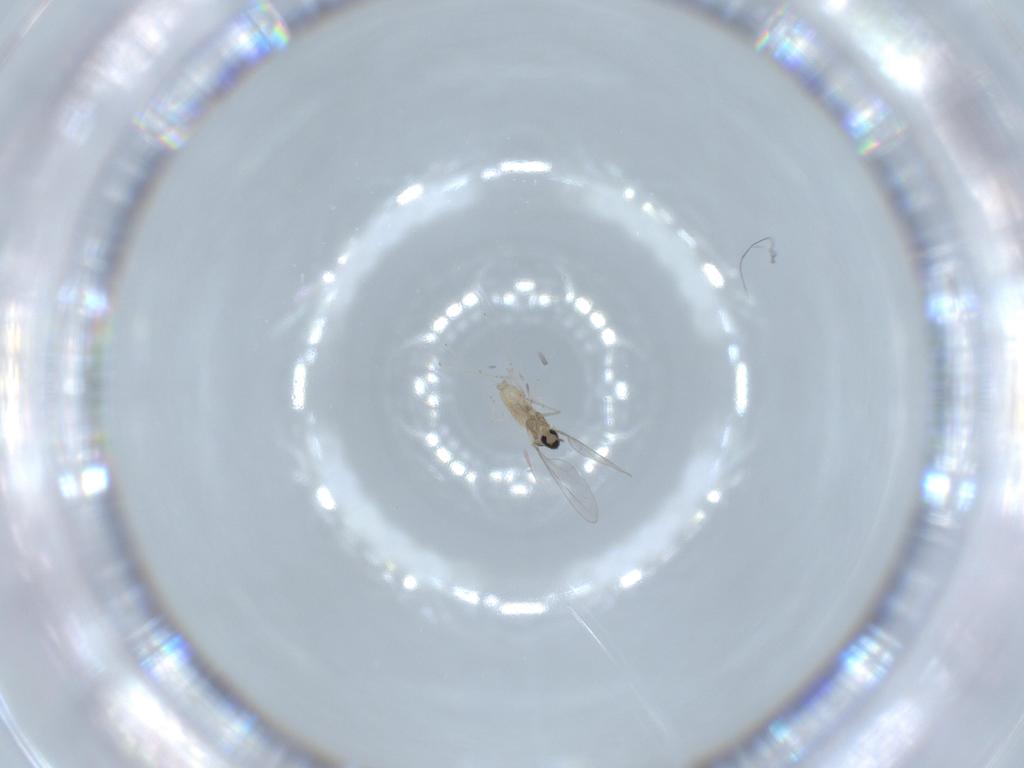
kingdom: Animalia
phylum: Arthropoda
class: Insecta
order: Diptera
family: Cecidomyiidae
